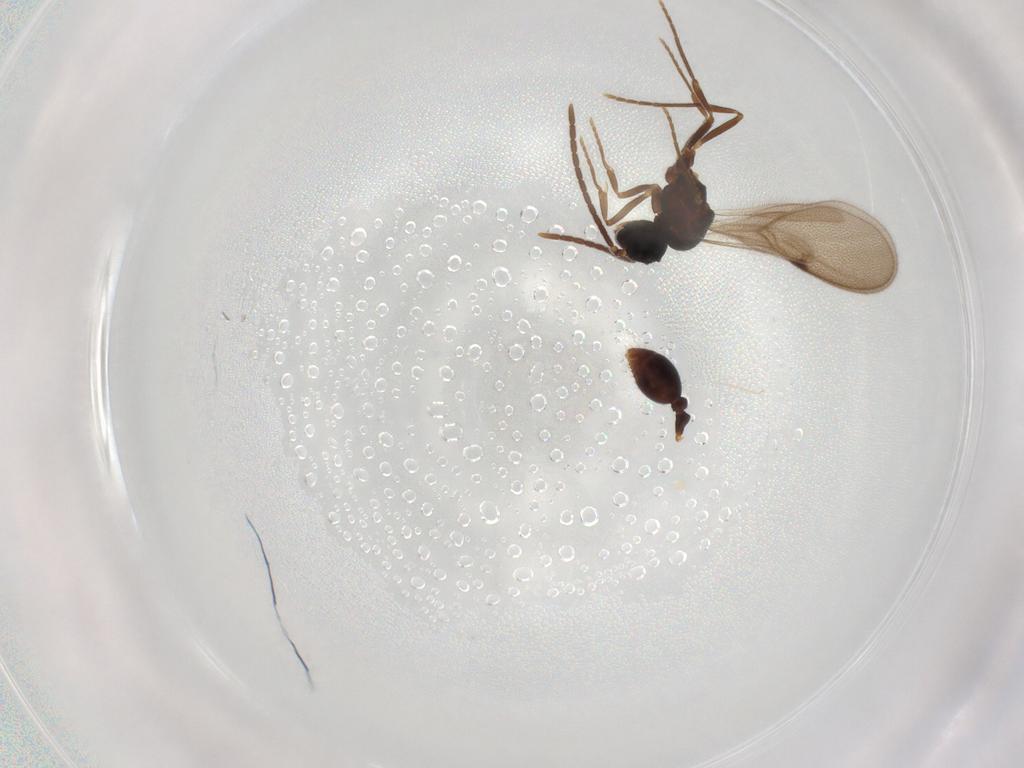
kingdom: Animalia
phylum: Arthropoda
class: Insecta
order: Hymenoptera
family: Formicidae
